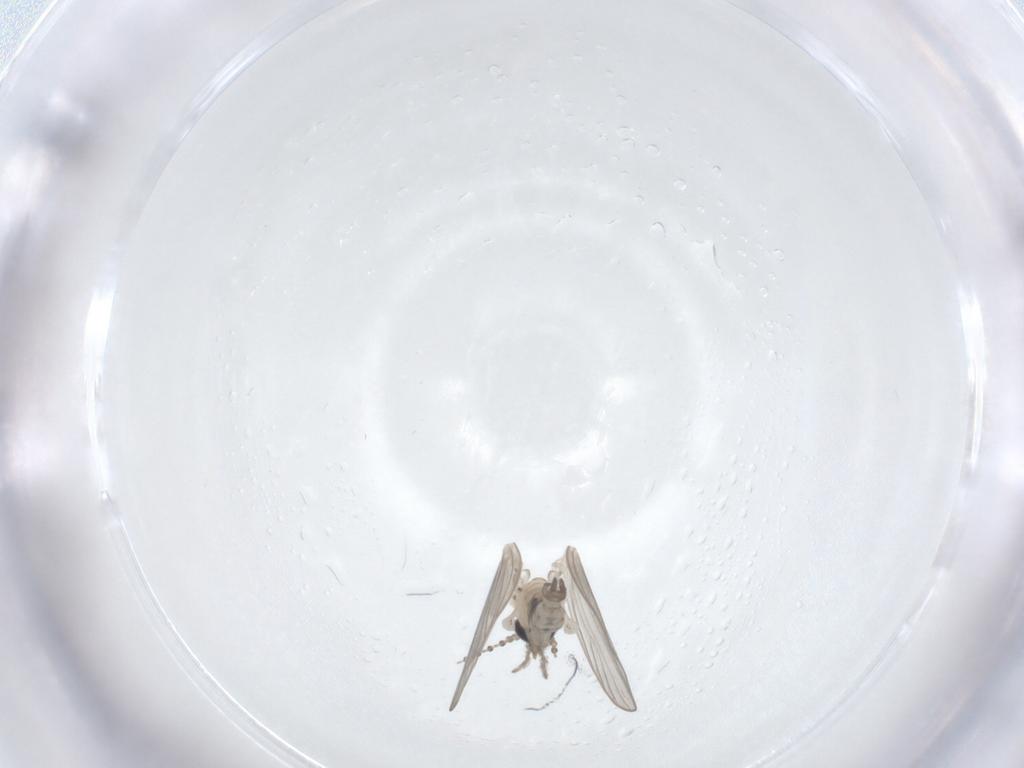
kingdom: Animalia
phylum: Arthropoda
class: Insecta
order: Diptera
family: Psychodidae
